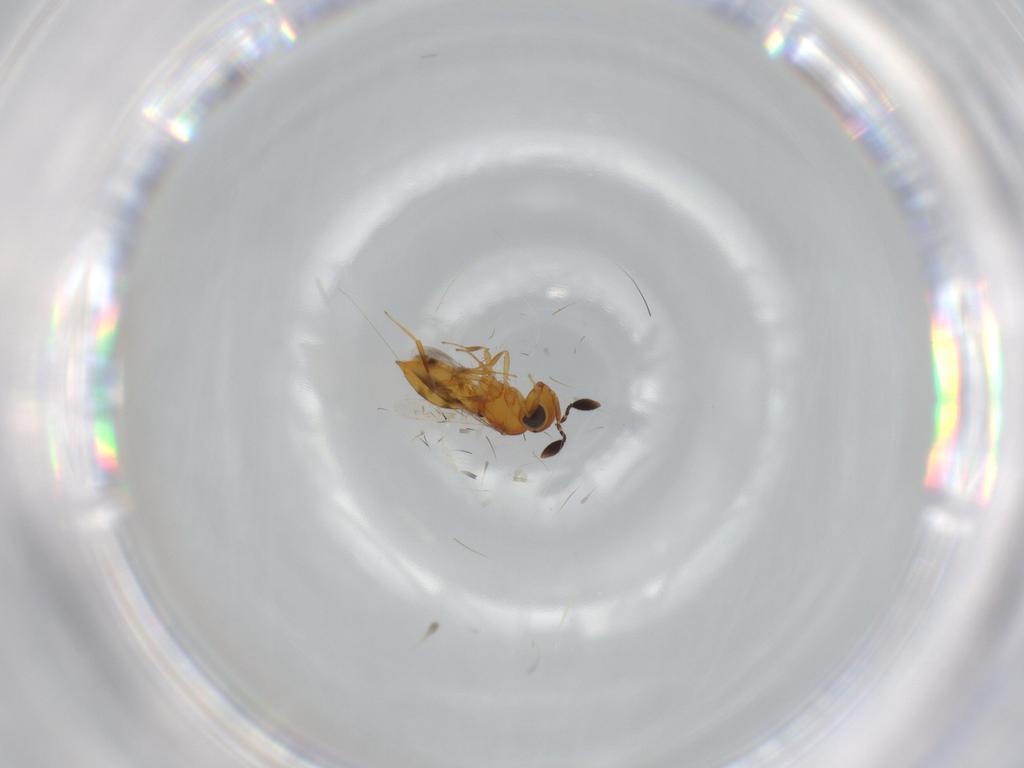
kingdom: Animalia
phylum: Arthropoda
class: Insecta
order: Hymenoptera
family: Scelionidae
